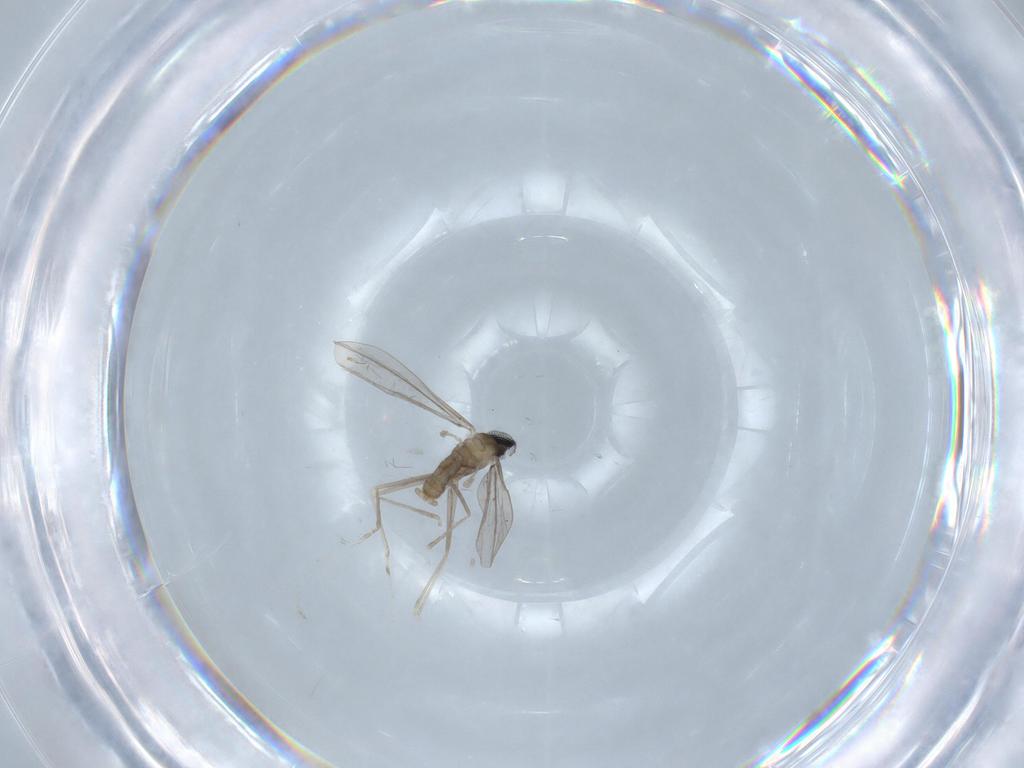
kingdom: Animalia
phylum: Arthropoda
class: Insecta
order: Diptera
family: Cecidomyiidae
